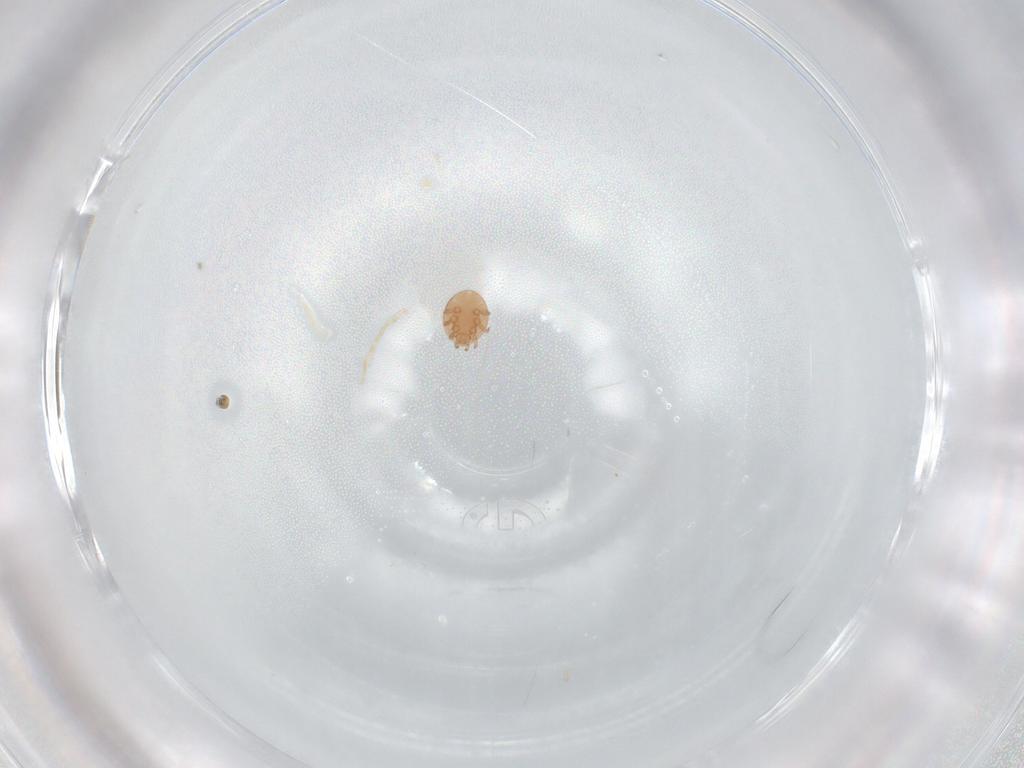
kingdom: Animalia
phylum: Arthropoda
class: Arachnida
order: Mesostigmata
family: Trematuridae
